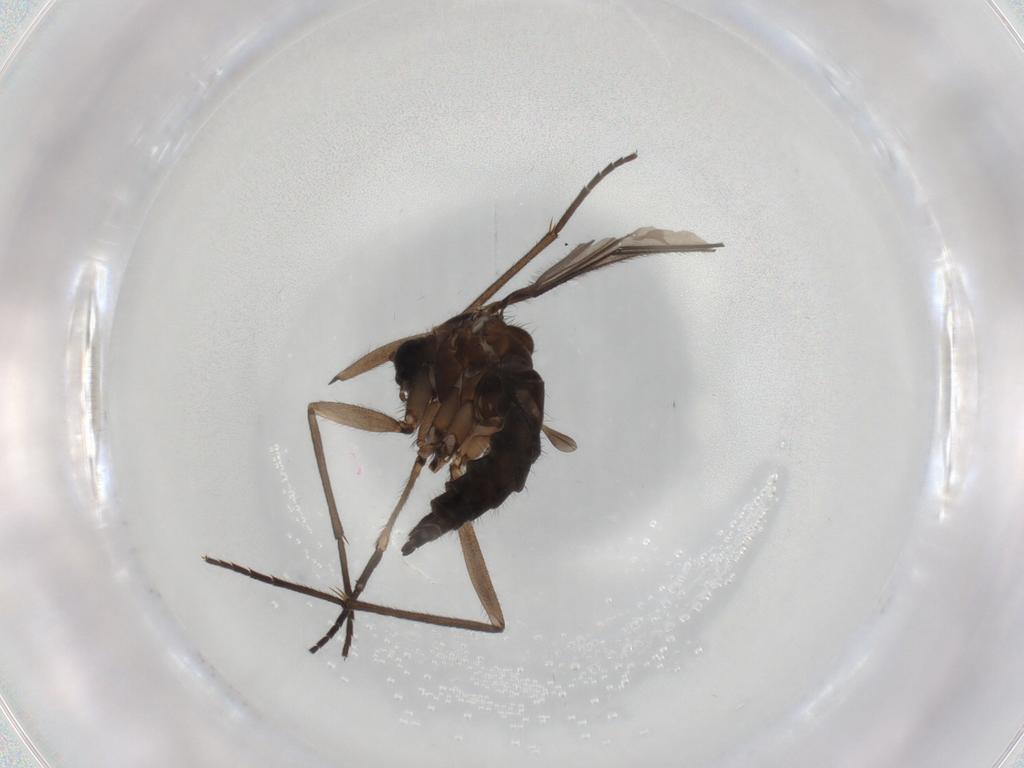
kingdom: Animalia
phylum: Arthropoda
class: Insecta
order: Diptera
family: Sciaridae
